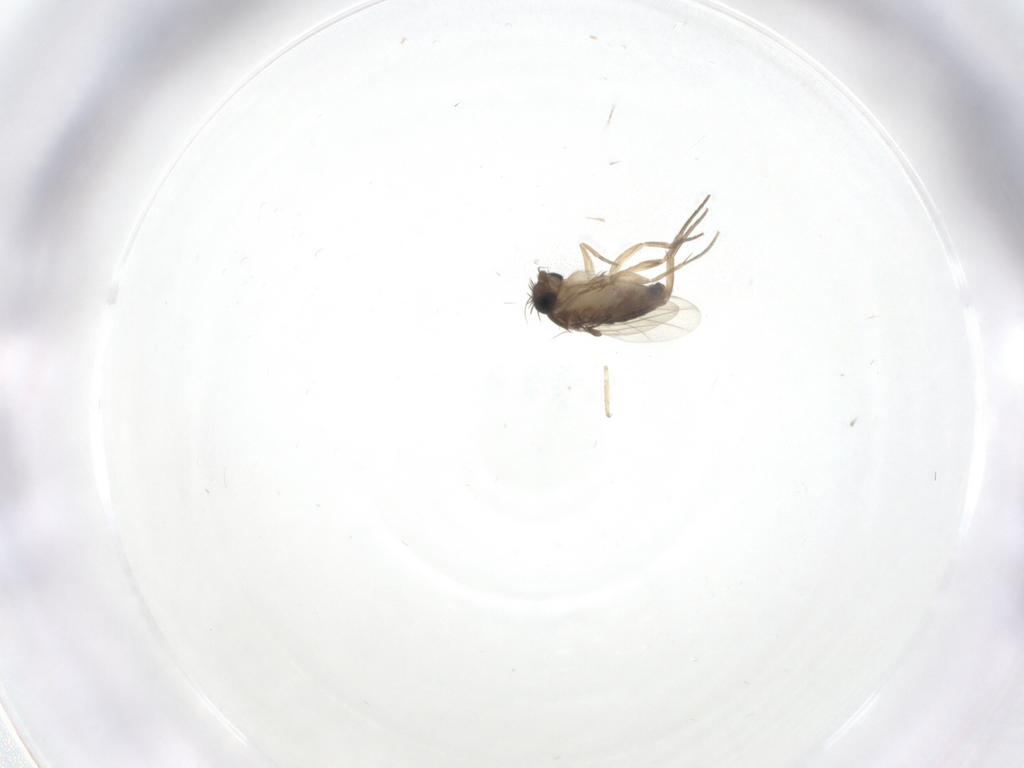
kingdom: Animalia
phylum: Arthropoda
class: Insecta
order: Diptera
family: Phoridae
